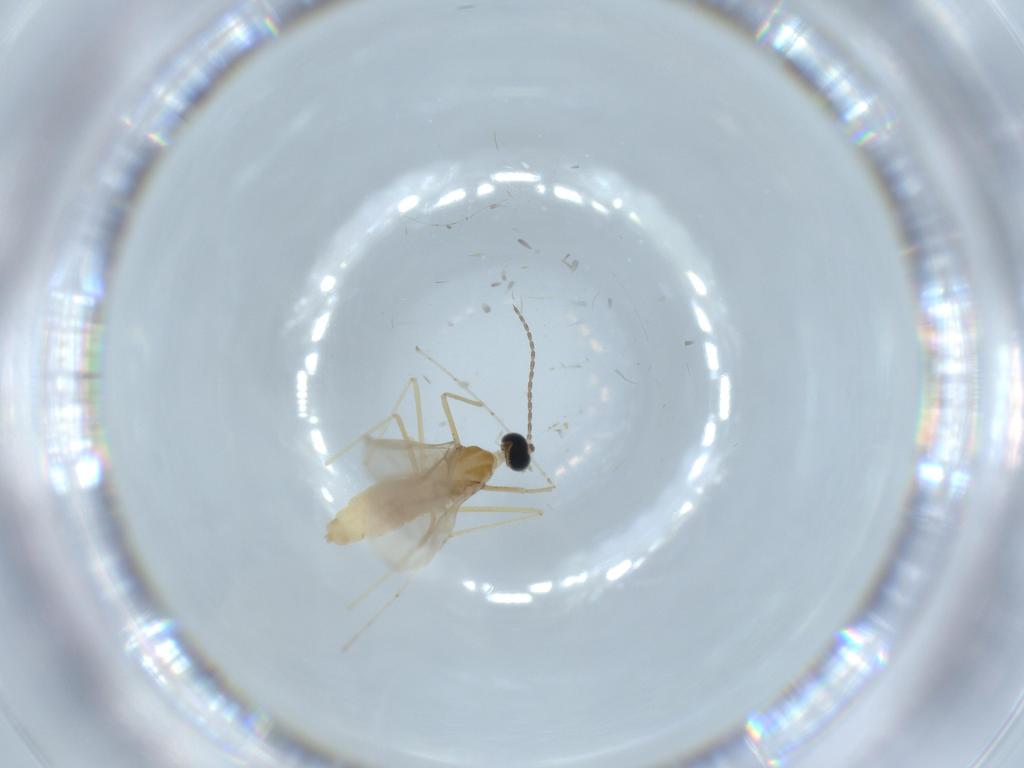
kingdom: Animalia
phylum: Arthropoda
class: Insecta
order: Diptera
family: Cecidomyiidae
